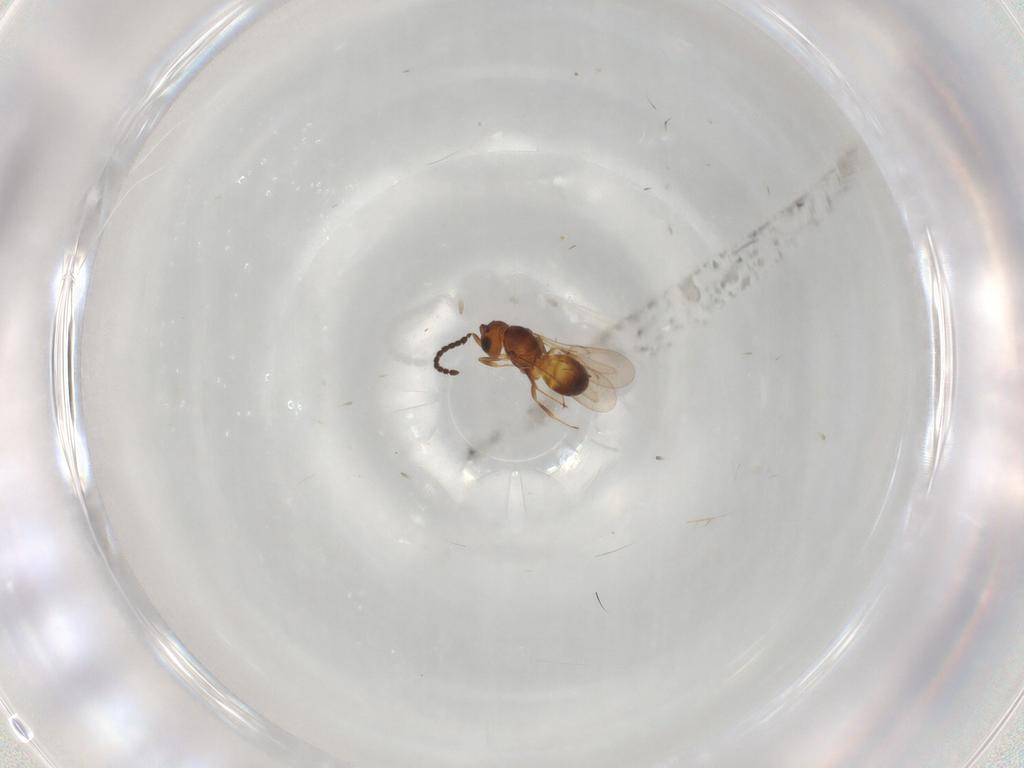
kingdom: Animalia
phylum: Arthropoda
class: Insecta
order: Hymenoptera
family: Scelionidae
